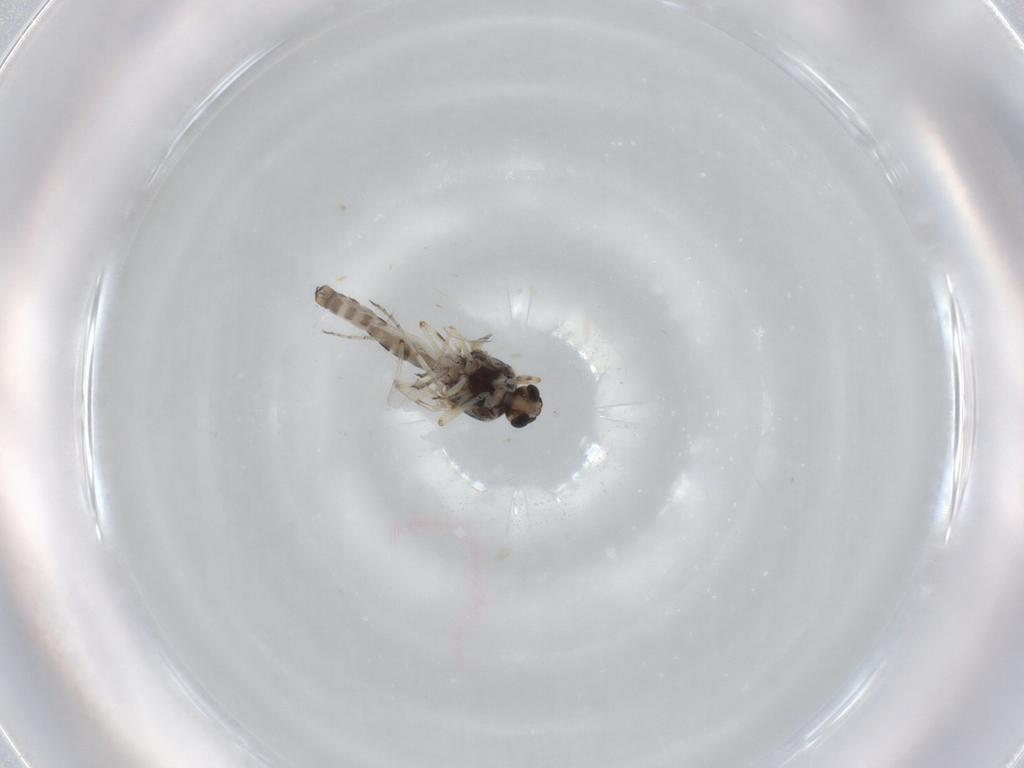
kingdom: Animalia
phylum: Arthropoda
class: Insecta
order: Diptera
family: Ceratopogonidae
